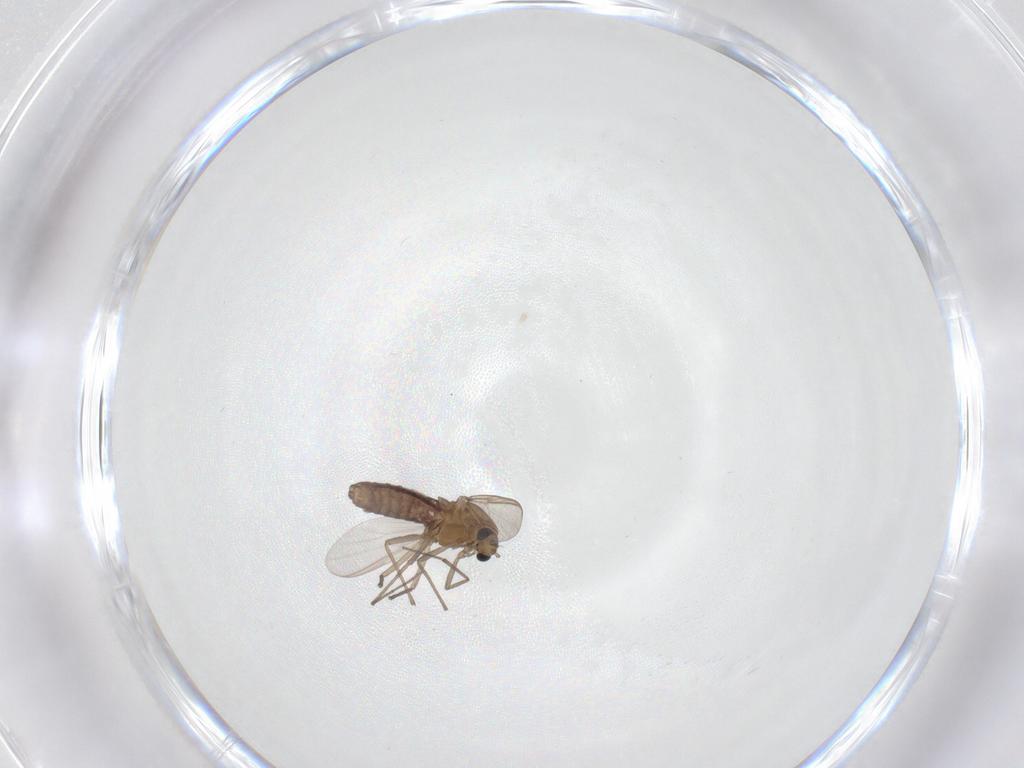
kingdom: Animalia
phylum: Arthropoda
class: Insecta
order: Diptera
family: Chironomidae
